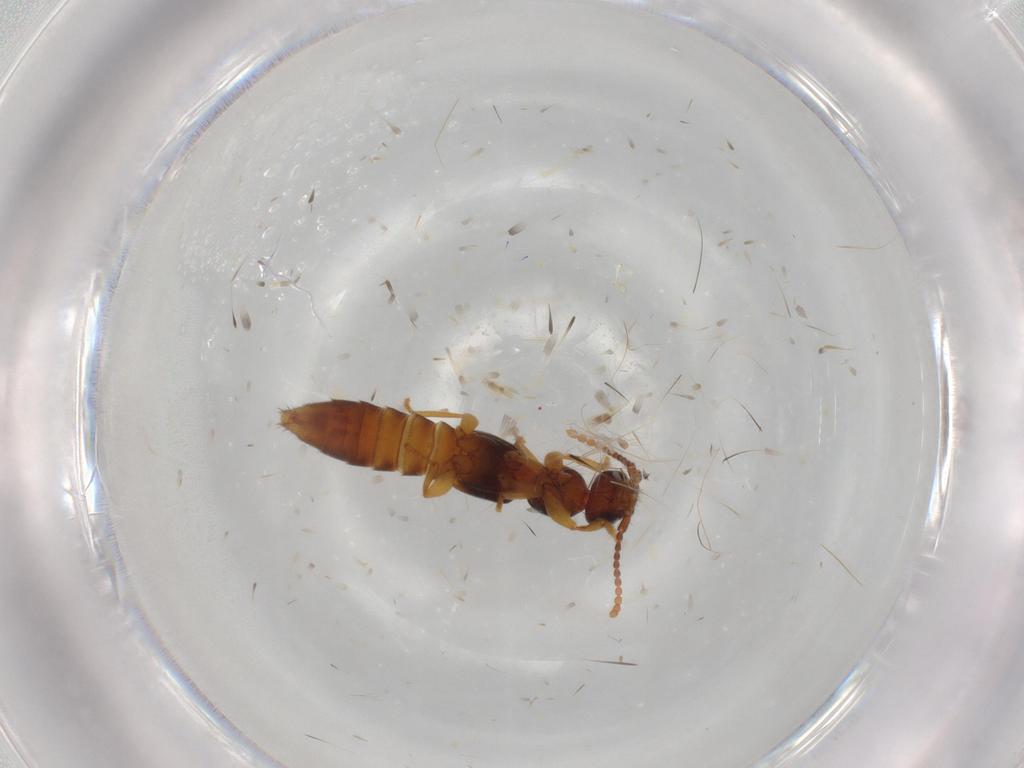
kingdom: Animalia
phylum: Arthropoda
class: Insecta
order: Coleoptera
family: Staphylinidae
